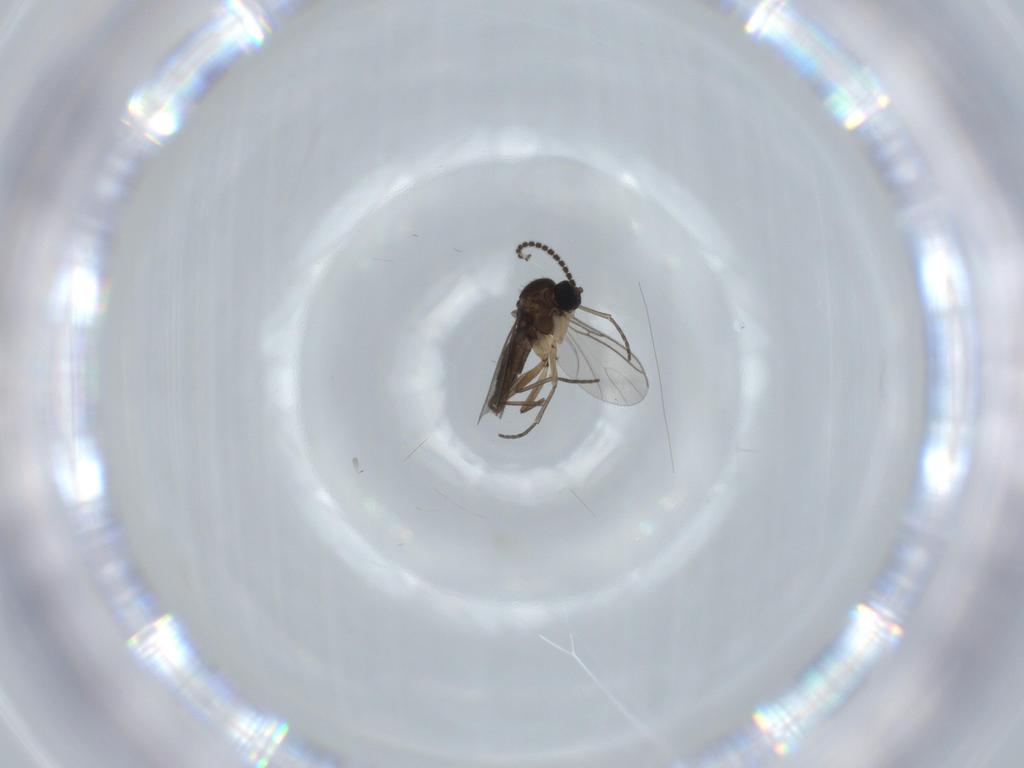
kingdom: Animalia
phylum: Arthropoda
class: Insecta
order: Diptera
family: Sciaridae
